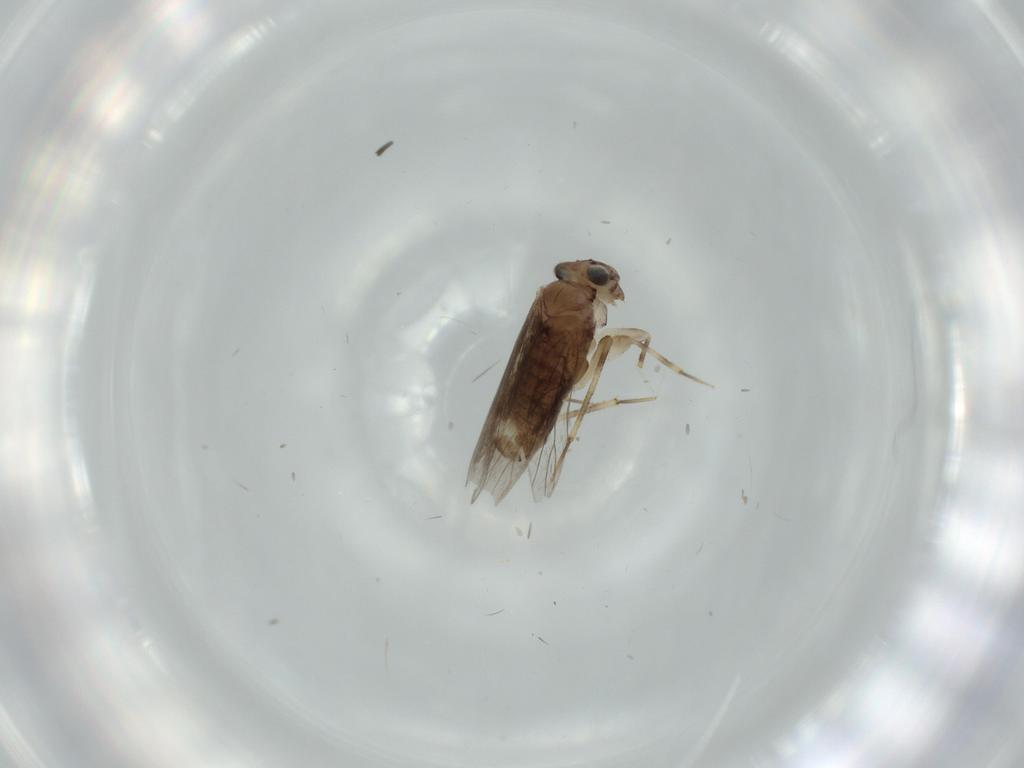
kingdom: Animalia
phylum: Arthropoda
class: Insecta
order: Psocodea
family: Lepidopsocidae
